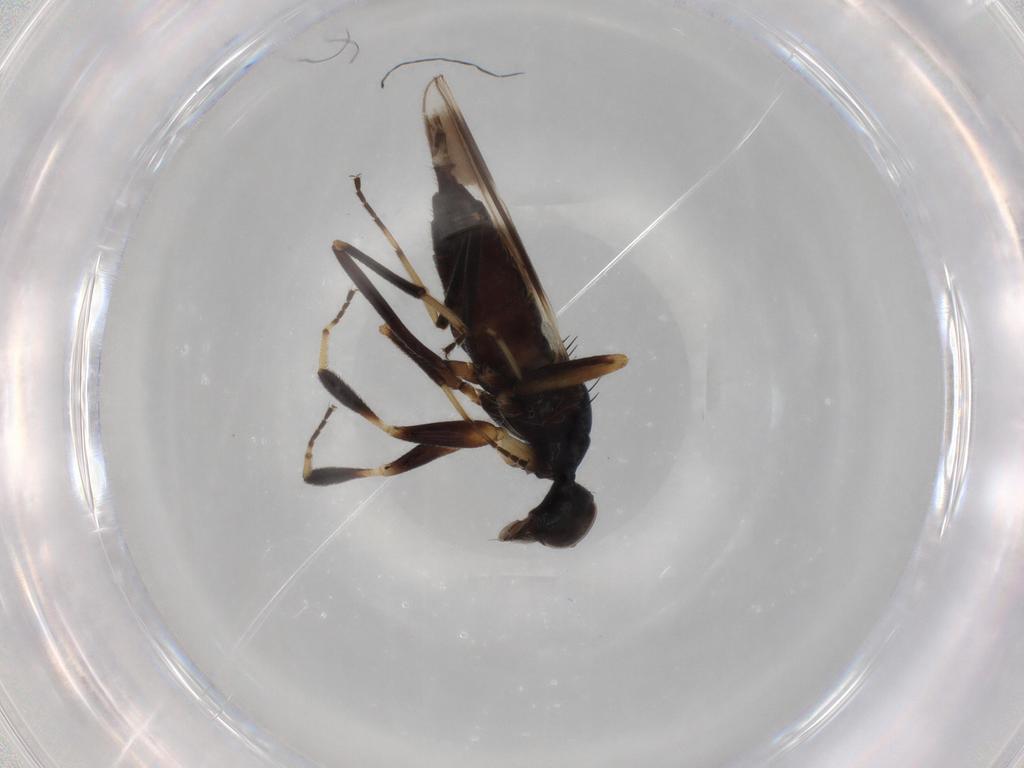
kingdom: Animalia
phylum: Arthropoda
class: Insecta
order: Diptera
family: Hybotidae
